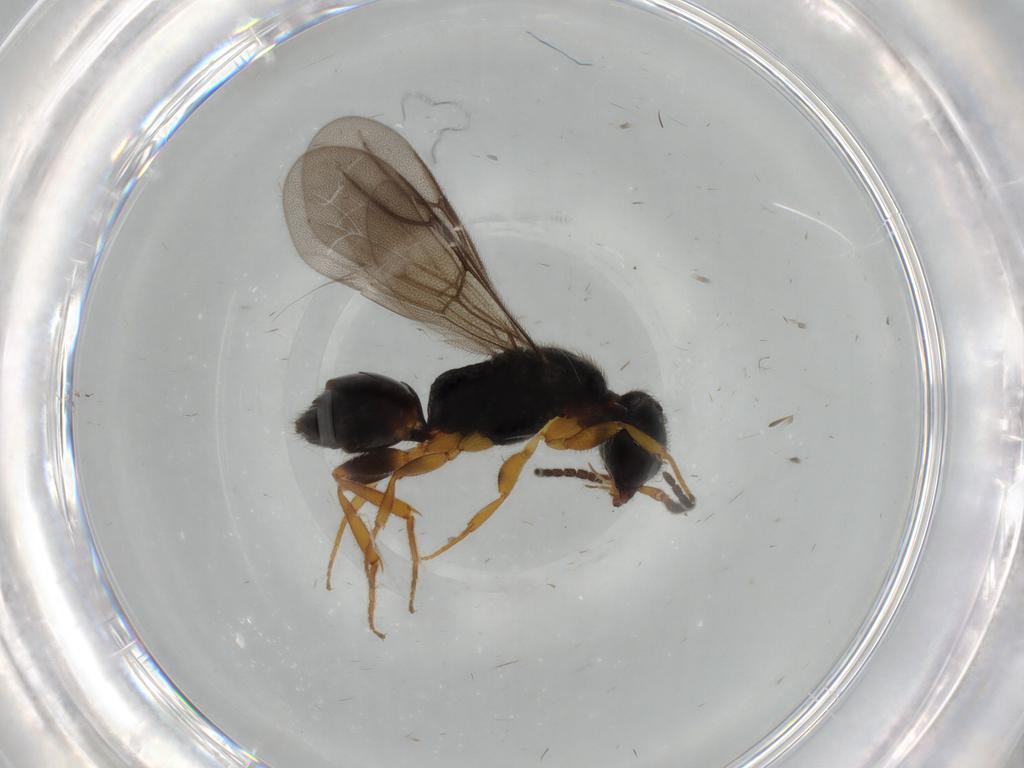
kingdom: Animalia
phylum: Arthropoda
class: Insecta
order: Hymenoptera
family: Bethylidae
